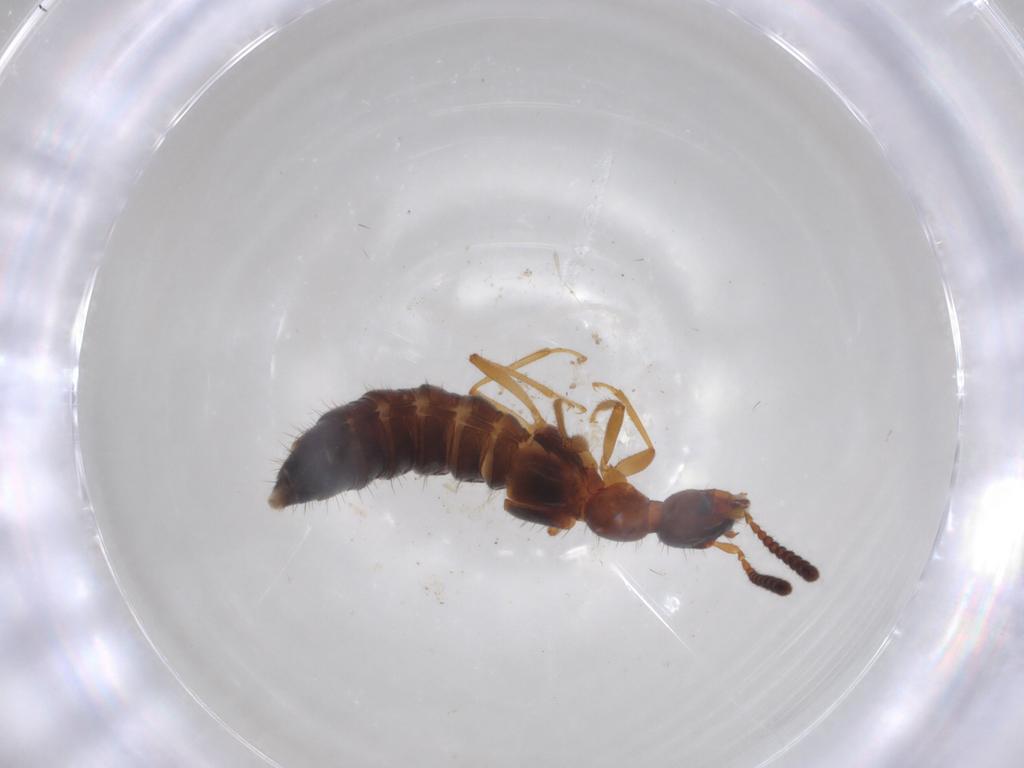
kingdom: Animalia
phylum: Arthropoda
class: Insecta
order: Coleoptera
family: Staphylinidae
